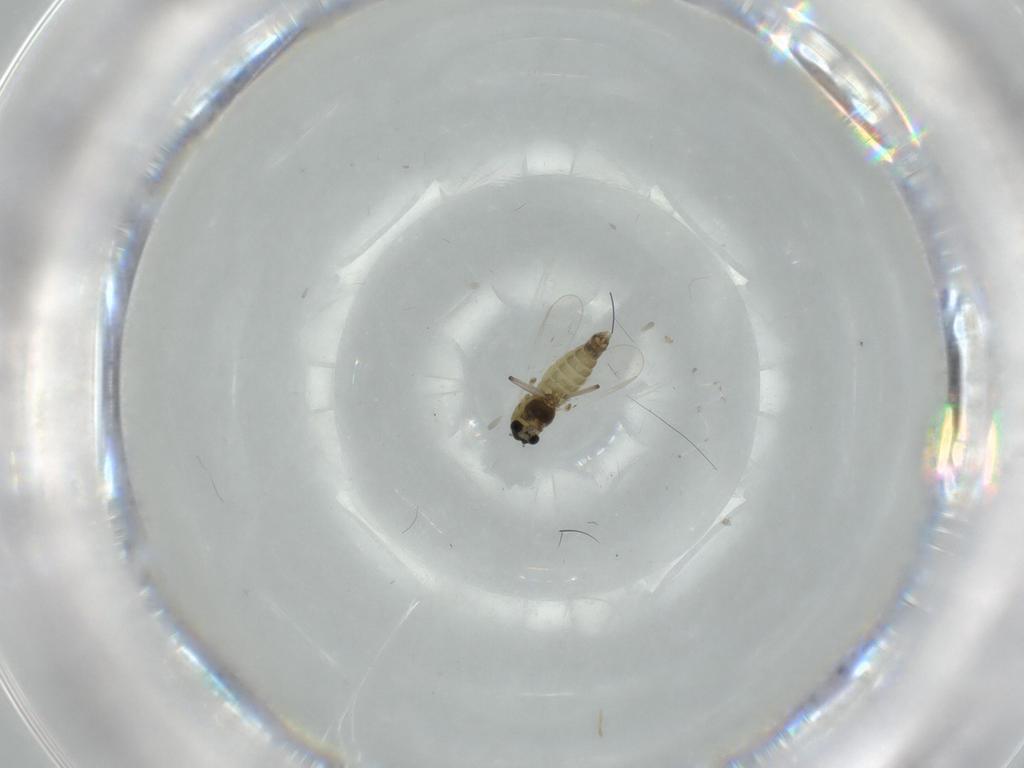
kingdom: Animalia
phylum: Arthropoda
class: Insecta
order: Diptera
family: Chironomidae
